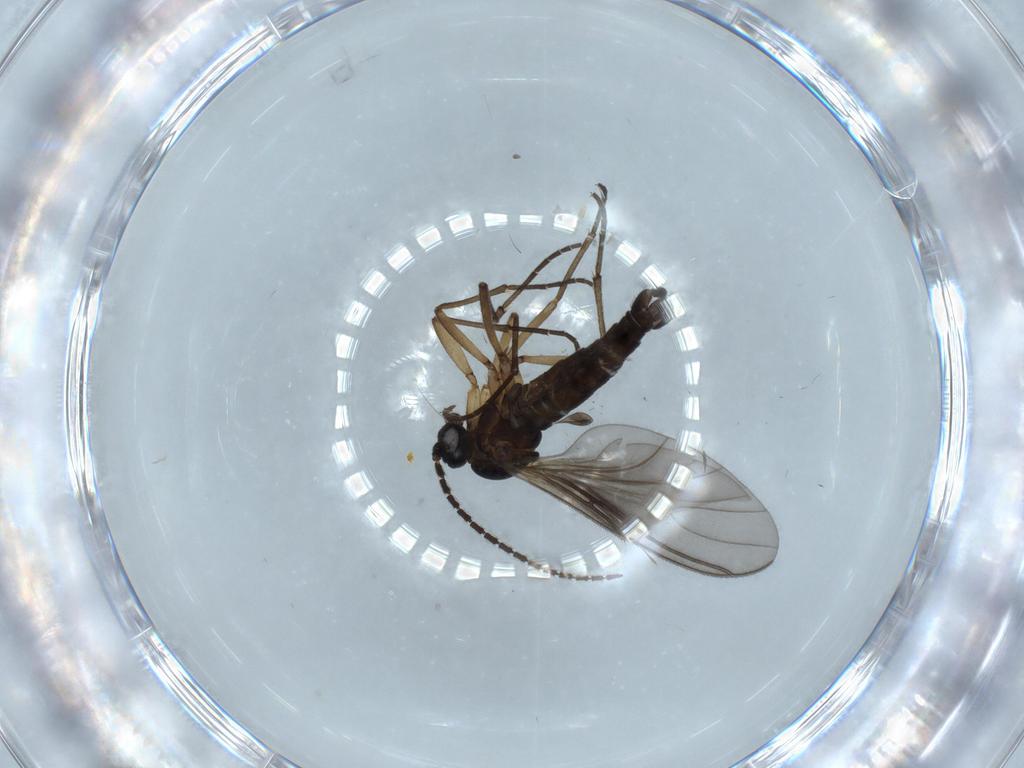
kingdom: Animalia
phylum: Arthropoda
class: Insecta
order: Diptera
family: Sciaridae
